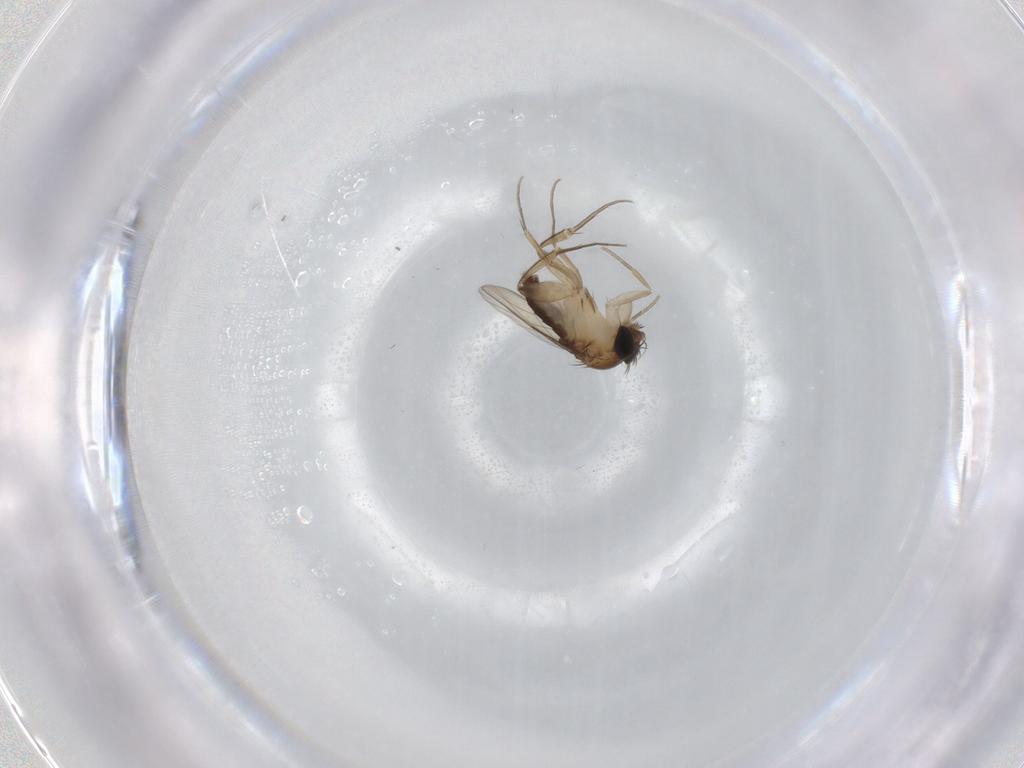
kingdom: Animalia
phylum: Arthropoda
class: Insecta
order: Diptera
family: Phoridae
